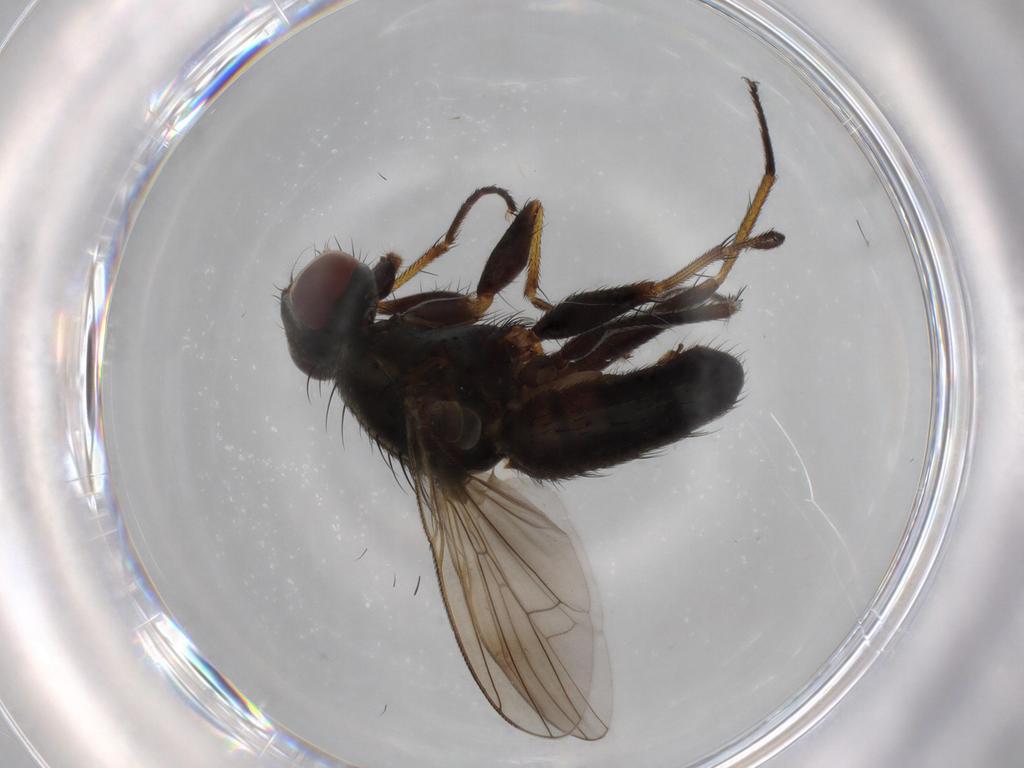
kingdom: Animalia
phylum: Arthropoda
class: Insecta
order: Diptera
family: Muscidae
